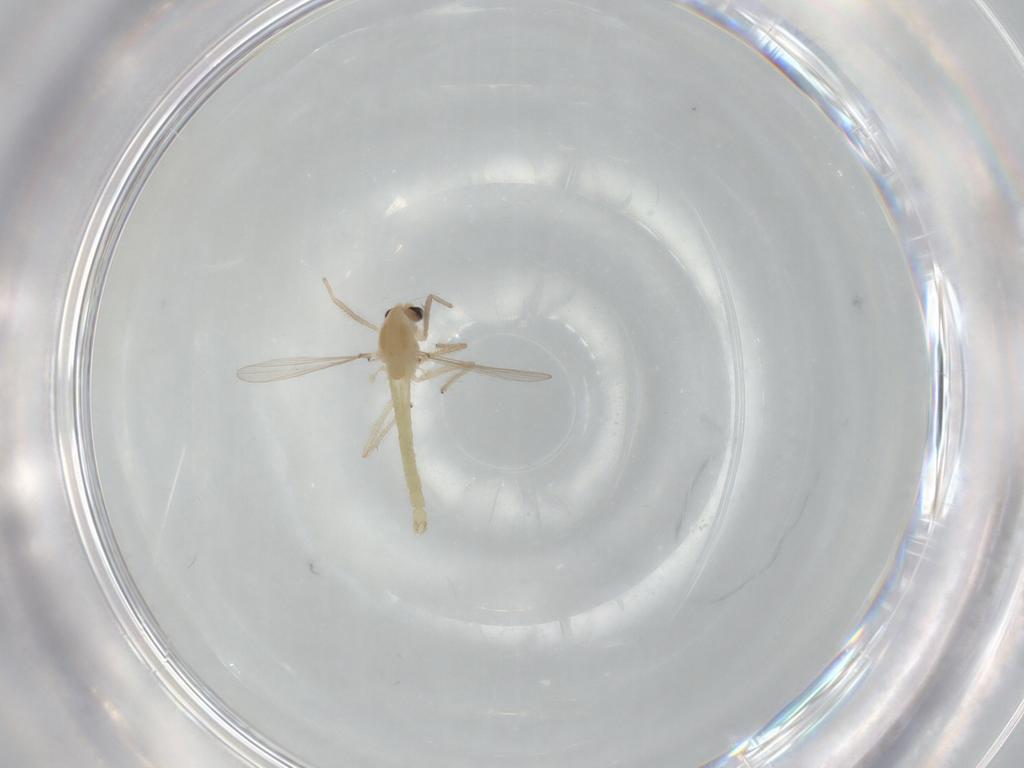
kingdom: Animalia
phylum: Arthropoda
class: Insecta
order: Diptera
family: Chironomidae
